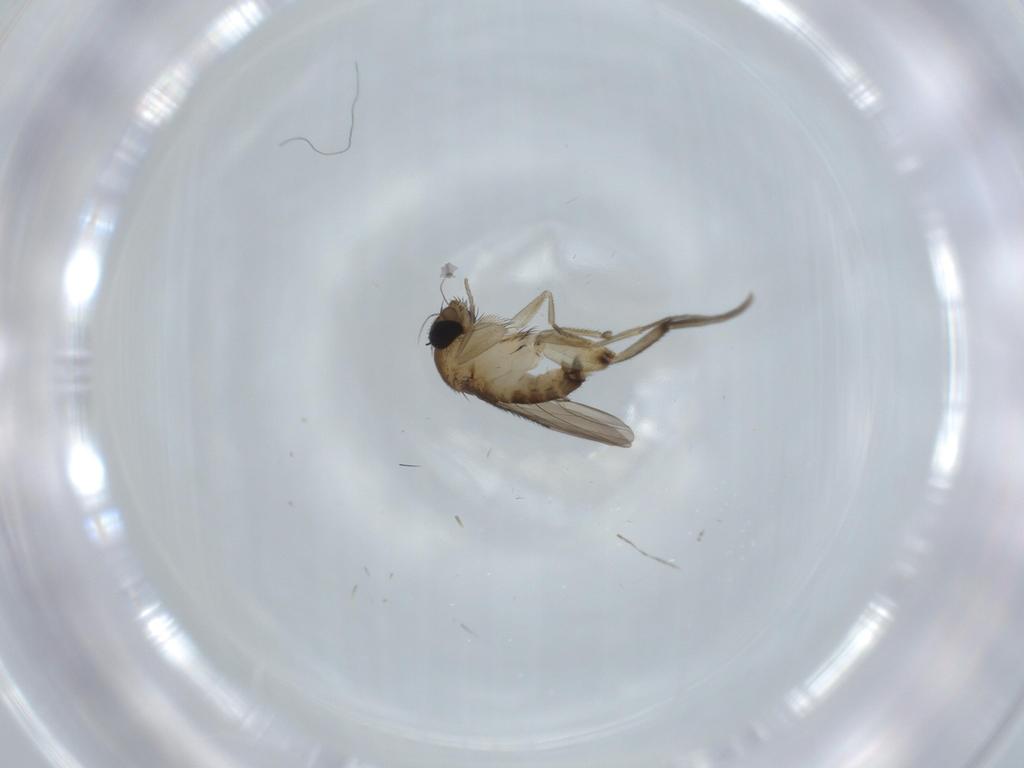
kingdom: Animalia
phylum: Arthropoda
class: Insecta
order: Diptera
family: Phoridae
